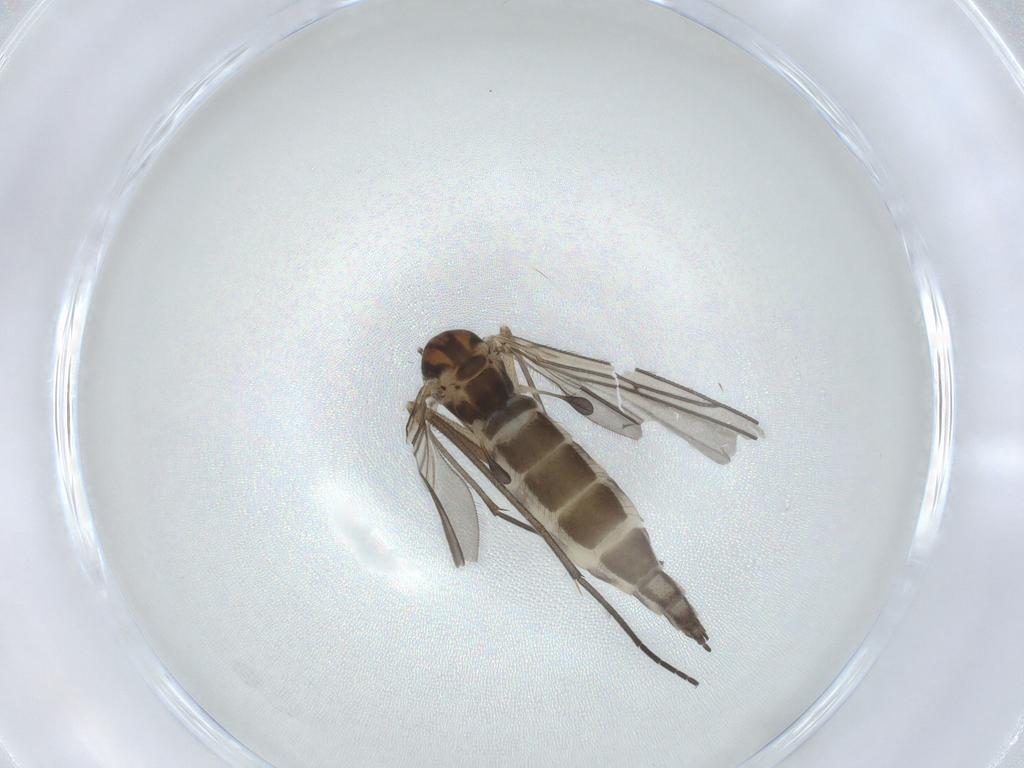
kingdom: Animalia
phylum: Arthropoda
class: Insecta
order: Diptera
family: Sciaridae
